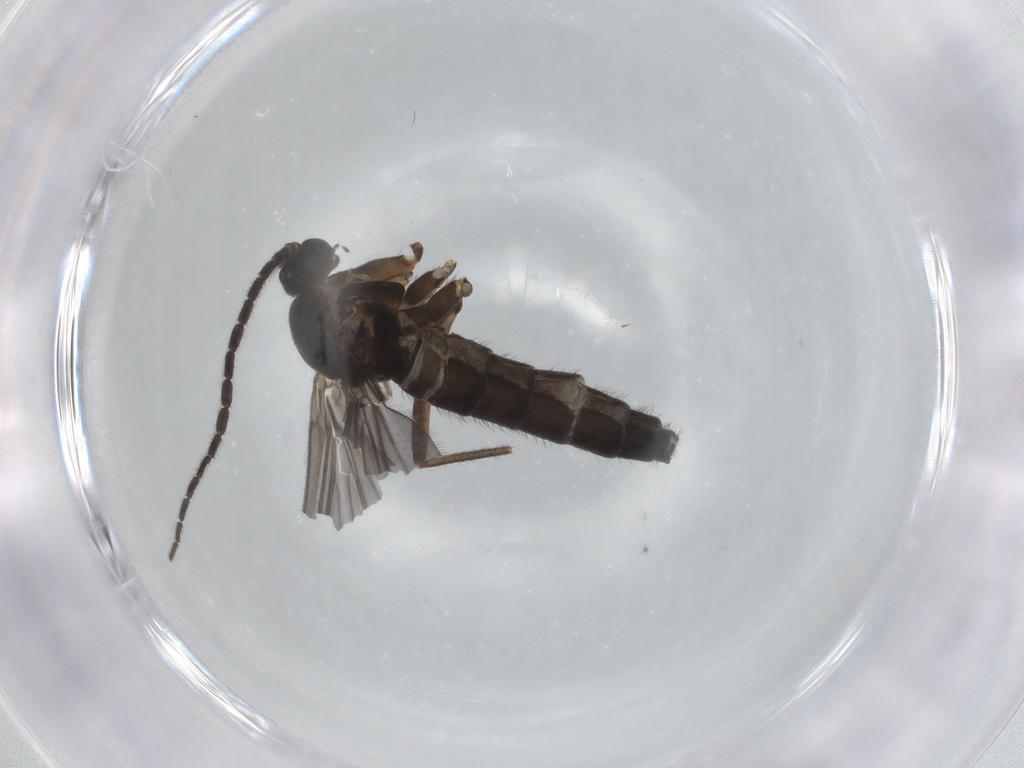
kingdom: Animalia
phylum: Arthropoda
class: Insecta
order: Diptera
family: Sciaridae
